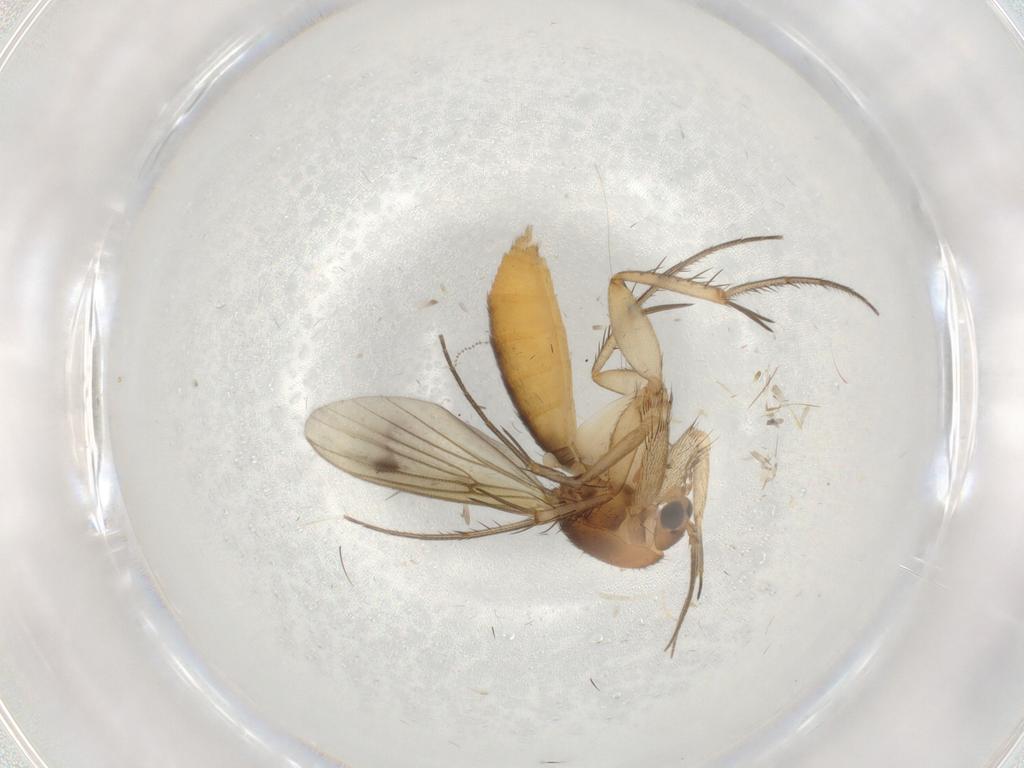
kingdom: Animalia
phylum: Arthropoda
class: Insecta
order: Diptera
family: Mycetophilidae
